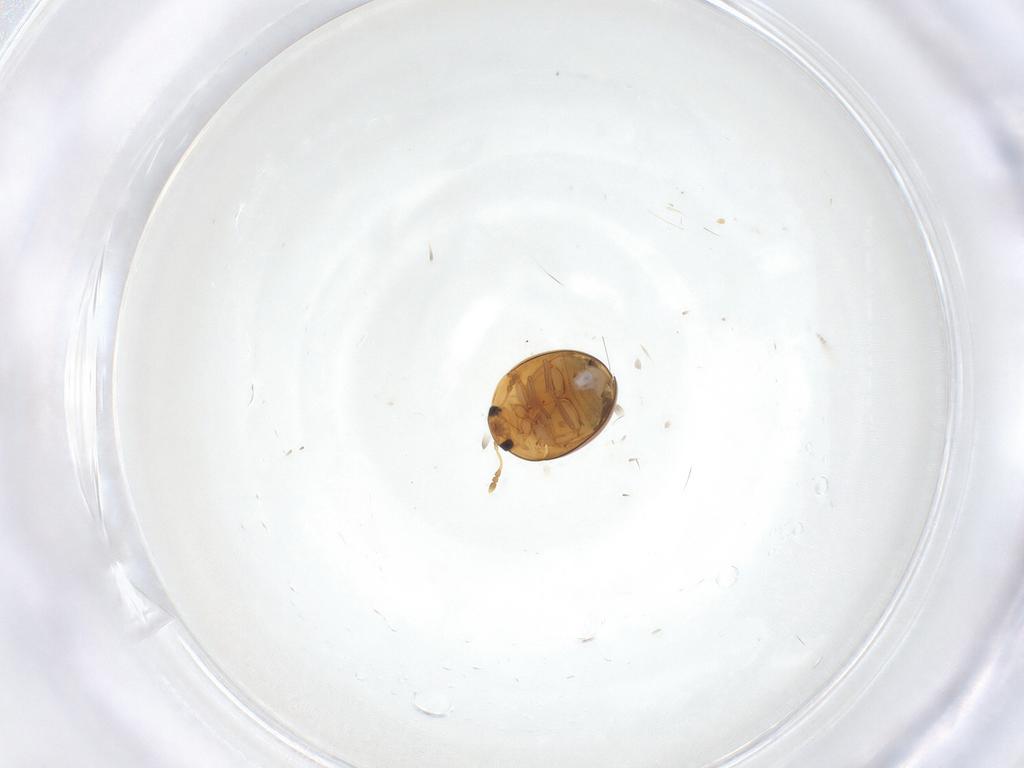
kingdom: Animalia
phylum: Arthropoda
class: Insecta
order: Coleoptera
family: Phalacridae
